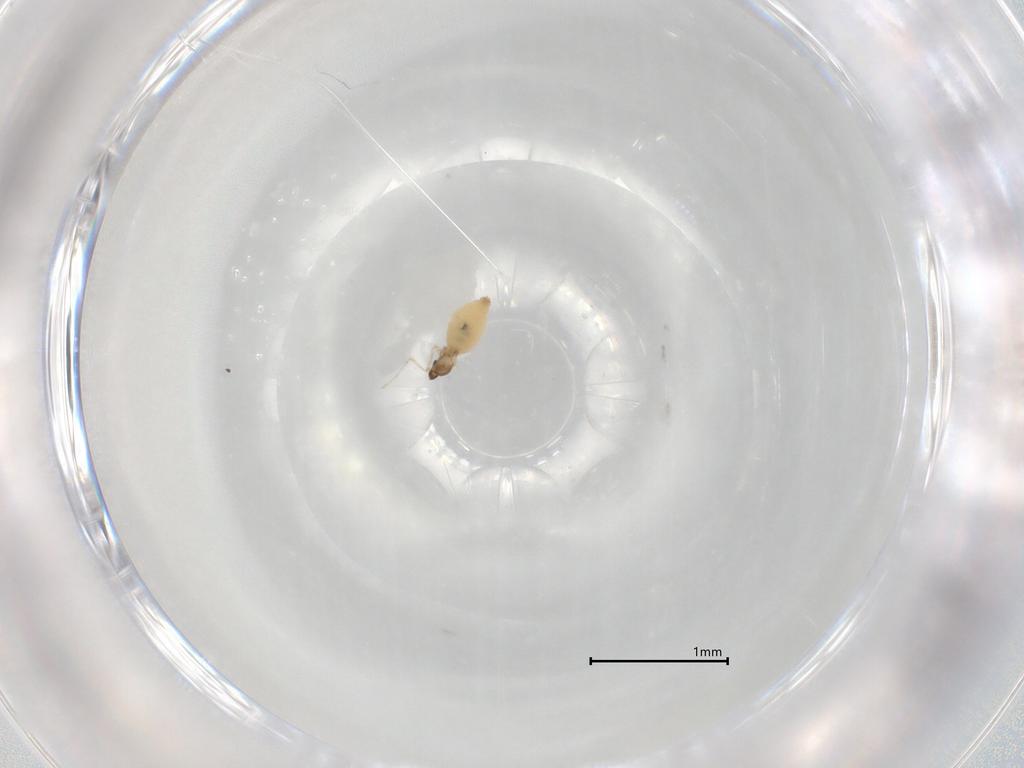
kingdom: Animalia
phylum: Arthropoda
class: Insecta
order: Diptera
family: Cecidomyiidae
